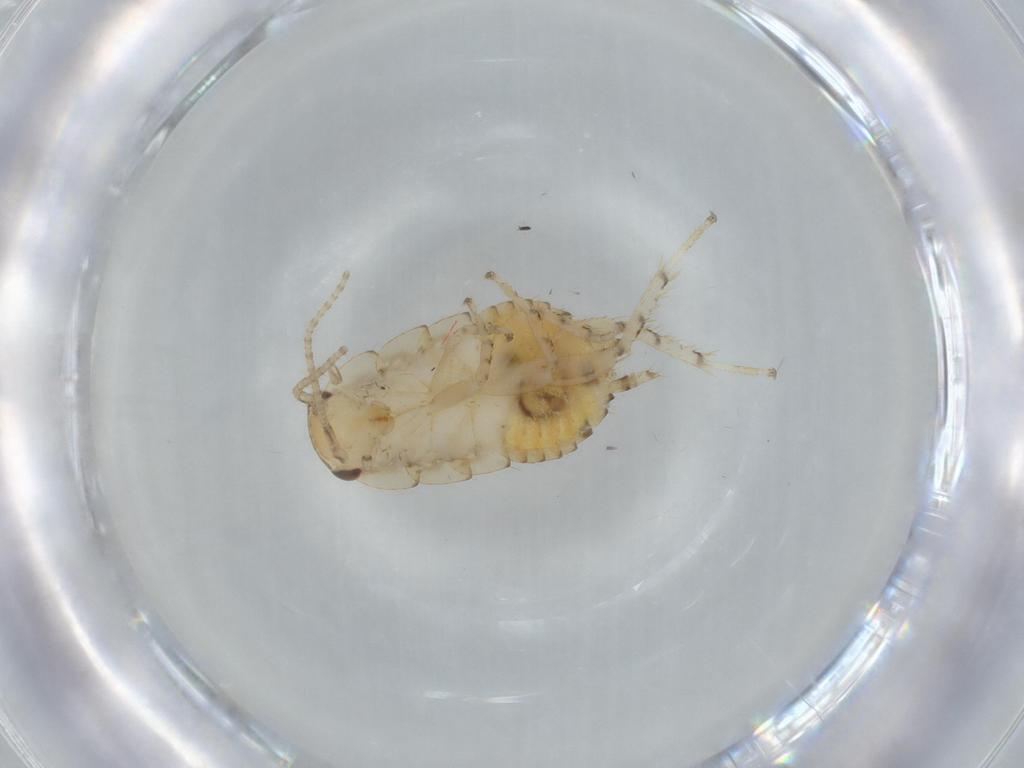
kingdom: Animalia
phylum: Arthropoda
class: Insecta
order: Blattodea
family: Ectobiidae
